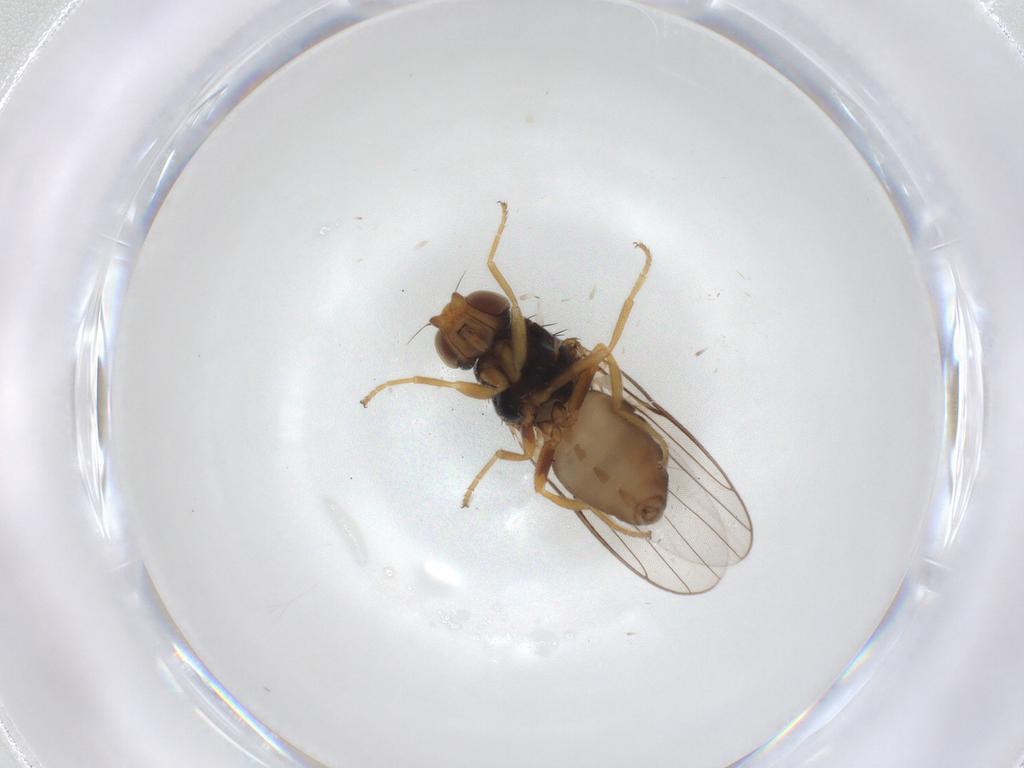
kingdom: Animalia
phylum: Arthropoda
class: Insecta
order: Diptera
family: Chloropidae
